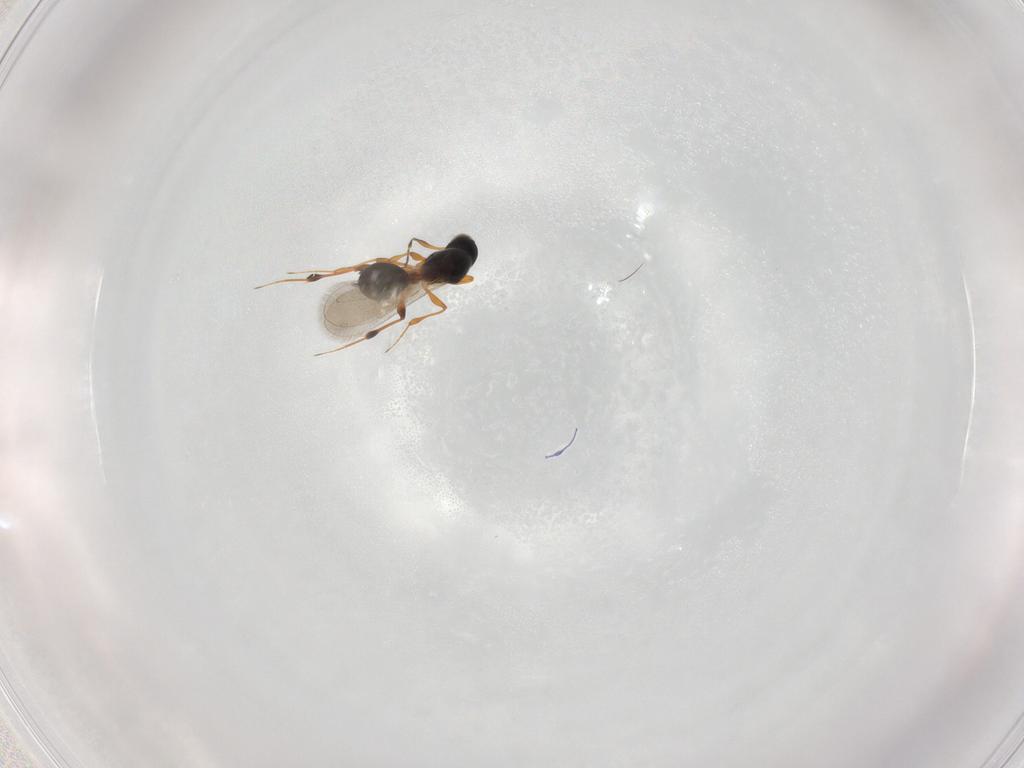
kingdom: Animalia
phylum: Arthropoda
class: Insecta
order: Hymenoptera
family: Platygastridae
